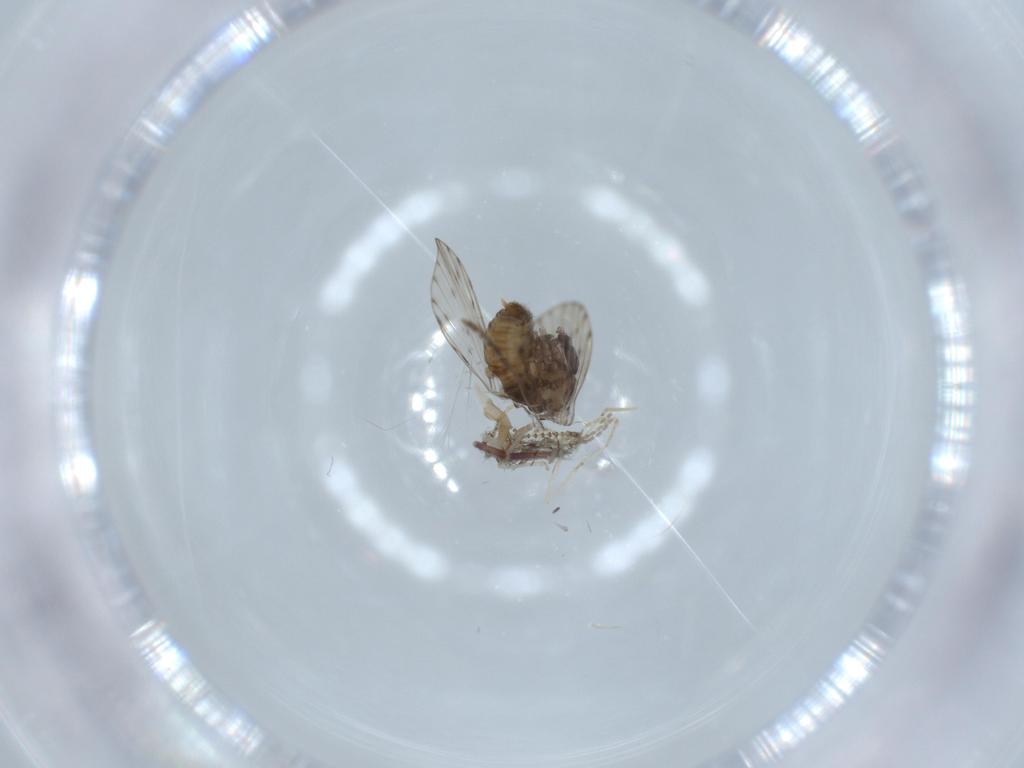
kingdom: Animalia
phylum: Arthropoda
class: Insecta
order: Diptera
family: Psychodidae
